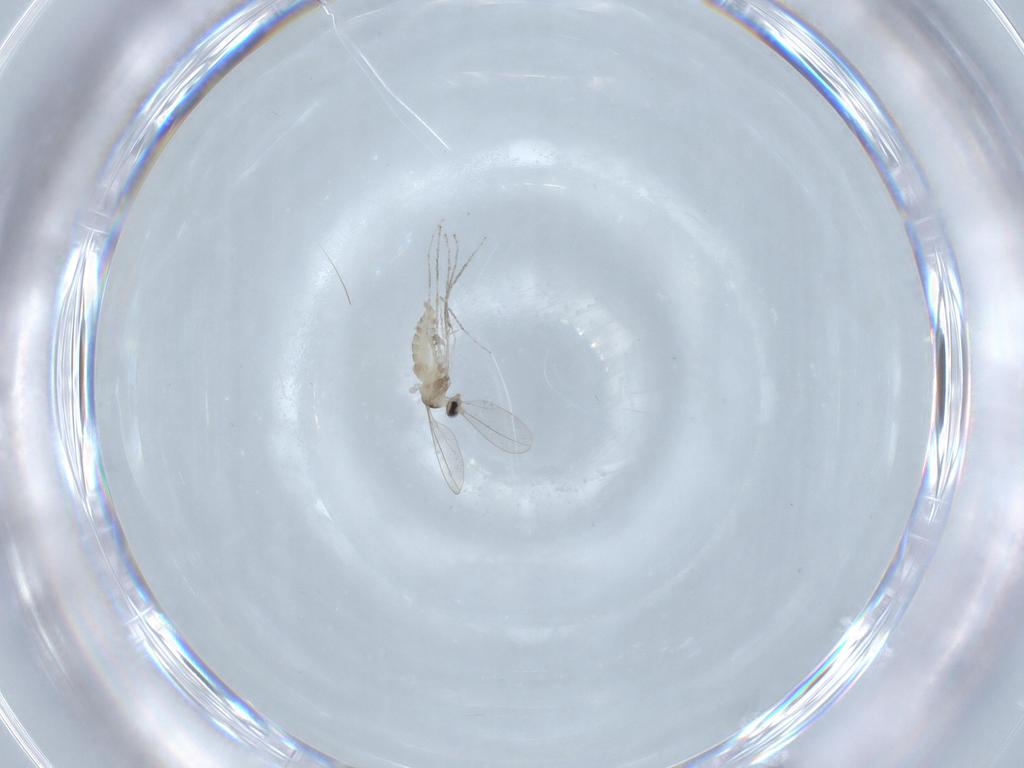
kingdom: Animalia
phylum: Arthropoda
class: Insecta
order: Diptera
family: Cecidomyiidae
